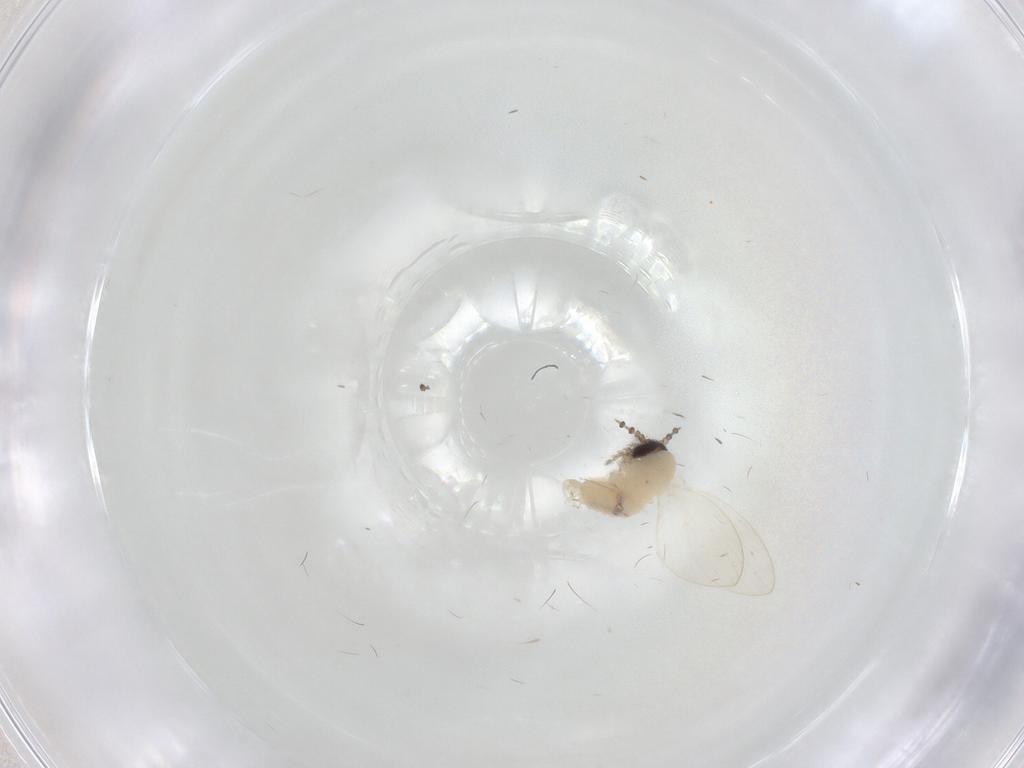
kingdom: Animalia
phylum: Arthropoda
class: Insecta
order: Diptera
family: Psychodidae
